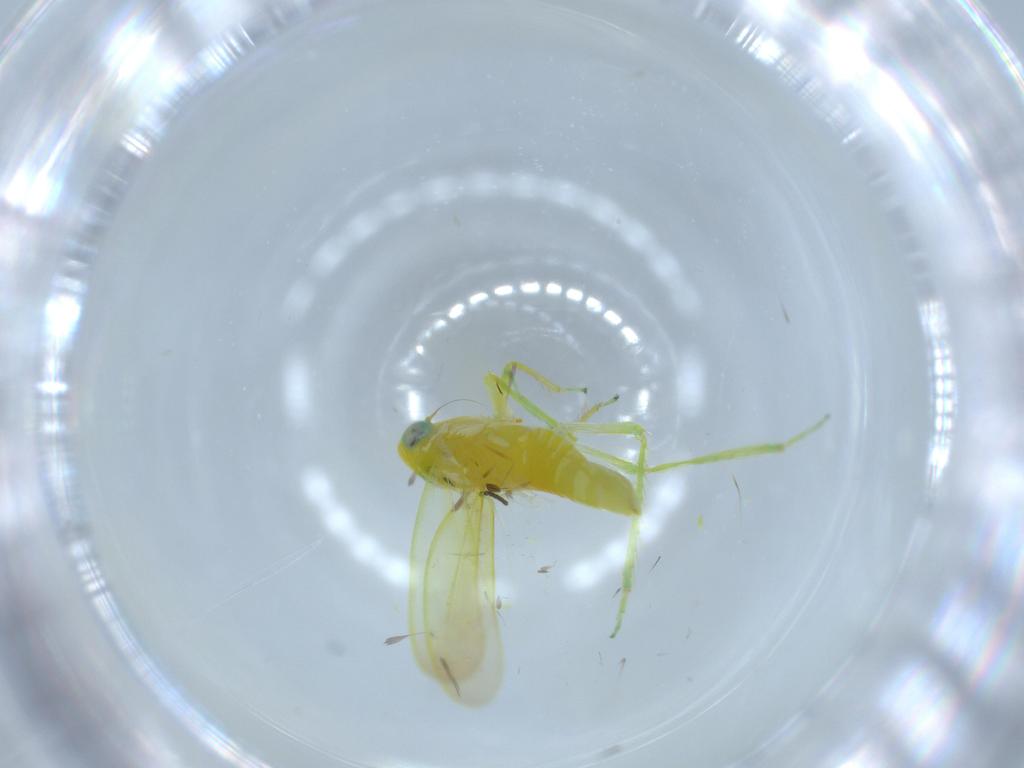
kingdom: Animalia
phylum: Arthropoda
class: Insecta
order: Hemiptera
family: Cicadellidae
